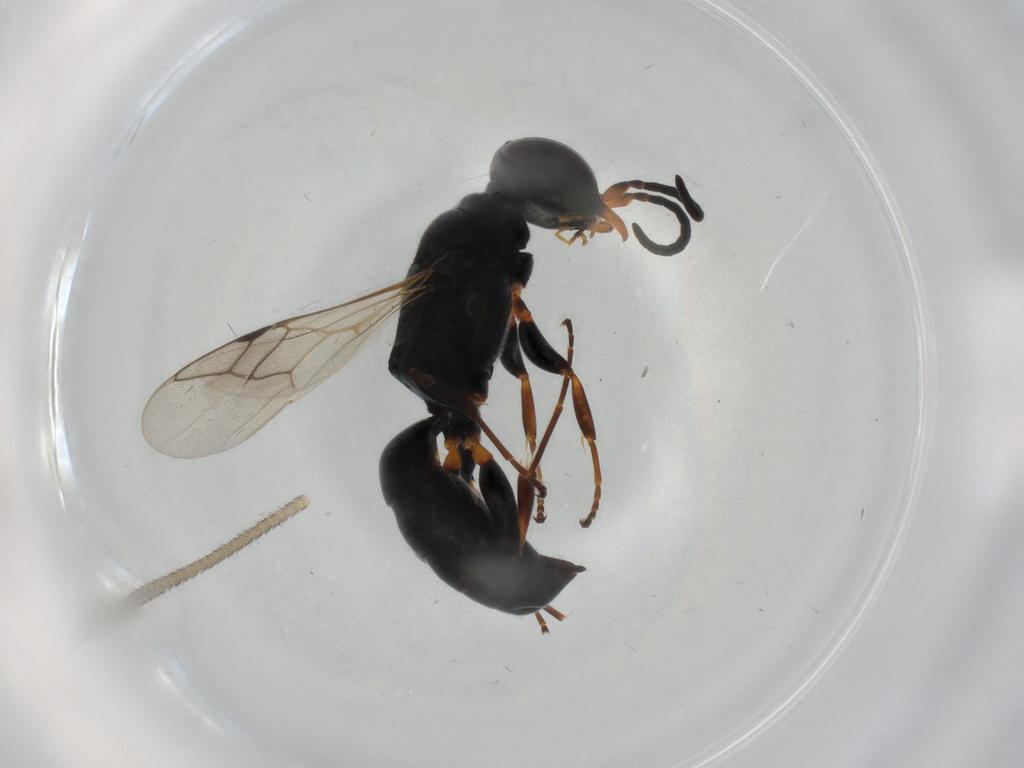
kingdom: Animalia
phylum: Arthropoda
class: Insecta
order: Hymenoptera
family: Crabronidae
